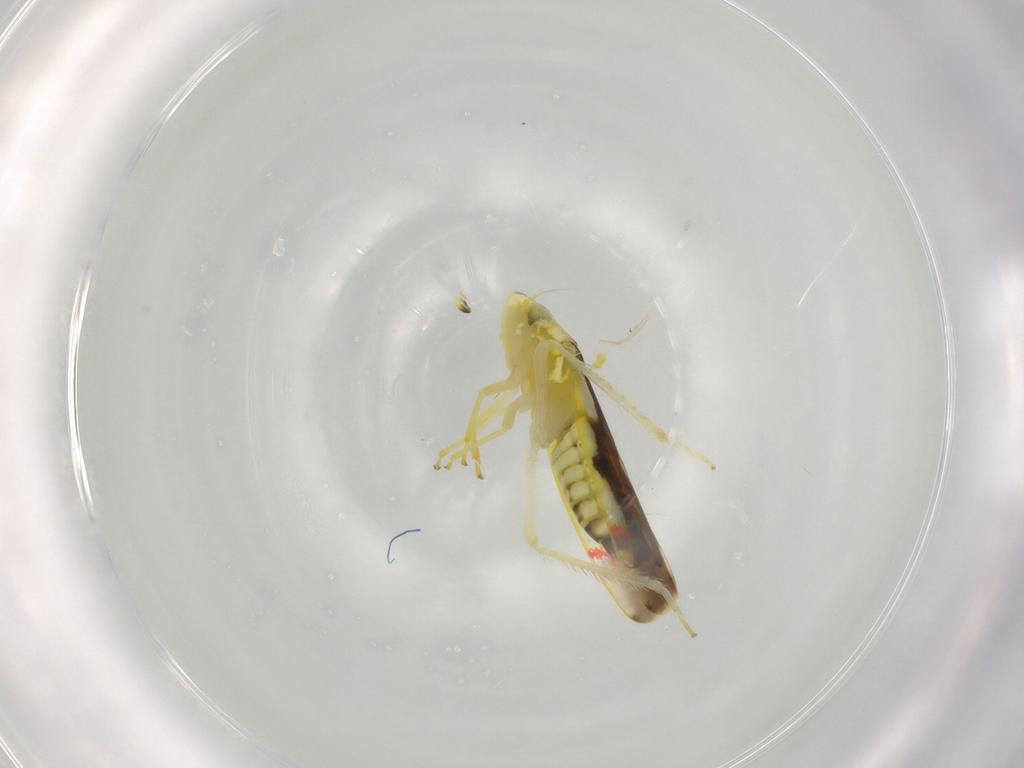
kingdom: Animalia
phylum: Arthropoda
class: Insecta
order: Hemiptera
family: Cicadellidae
